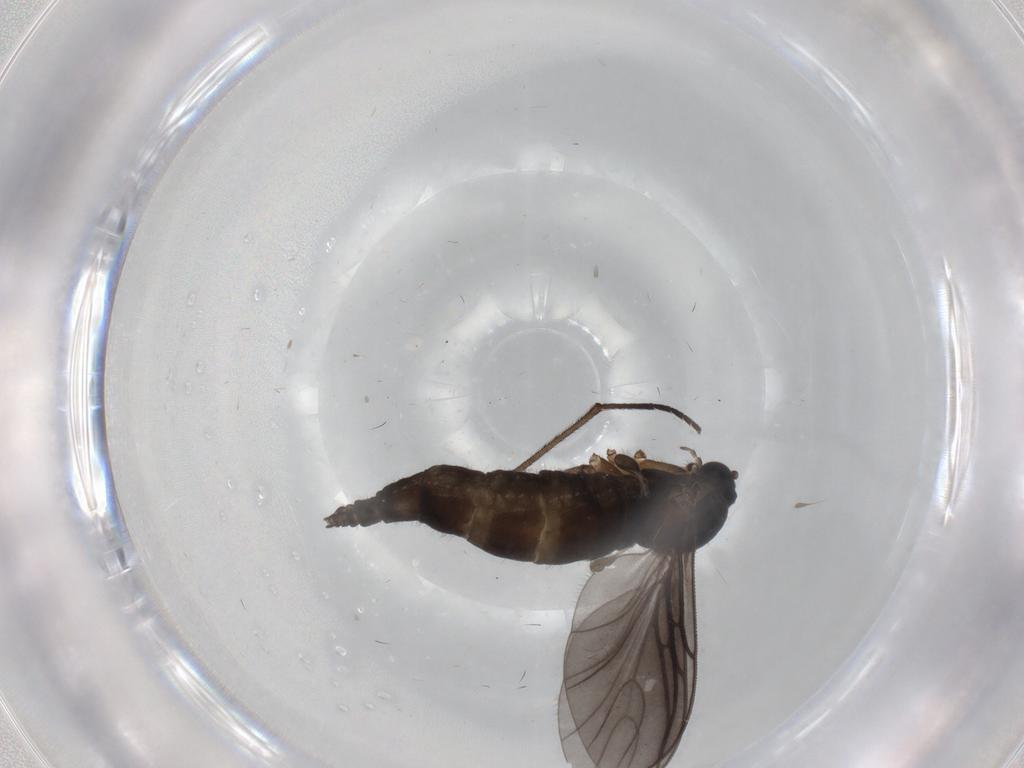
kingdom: Animalia
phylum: Arthropoda
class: Insecta
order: Diptera
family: Sciaridae
